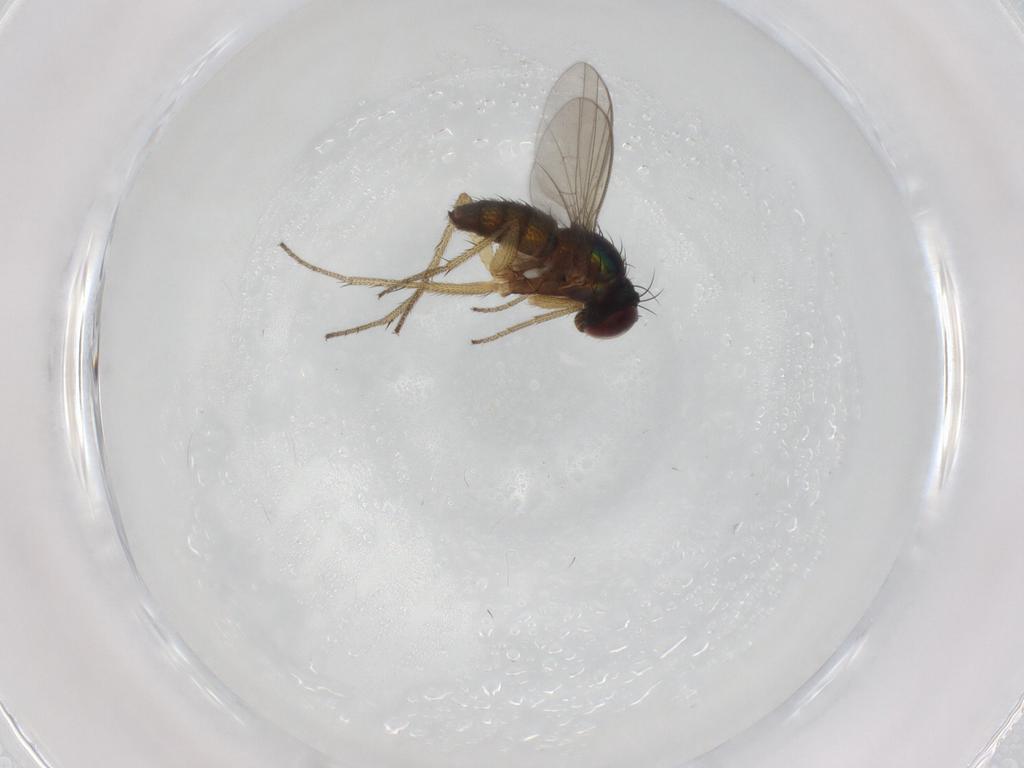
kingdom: Animalia
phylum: Arthropoda
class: Insecta
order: Diptera
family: Dolichopodidae
